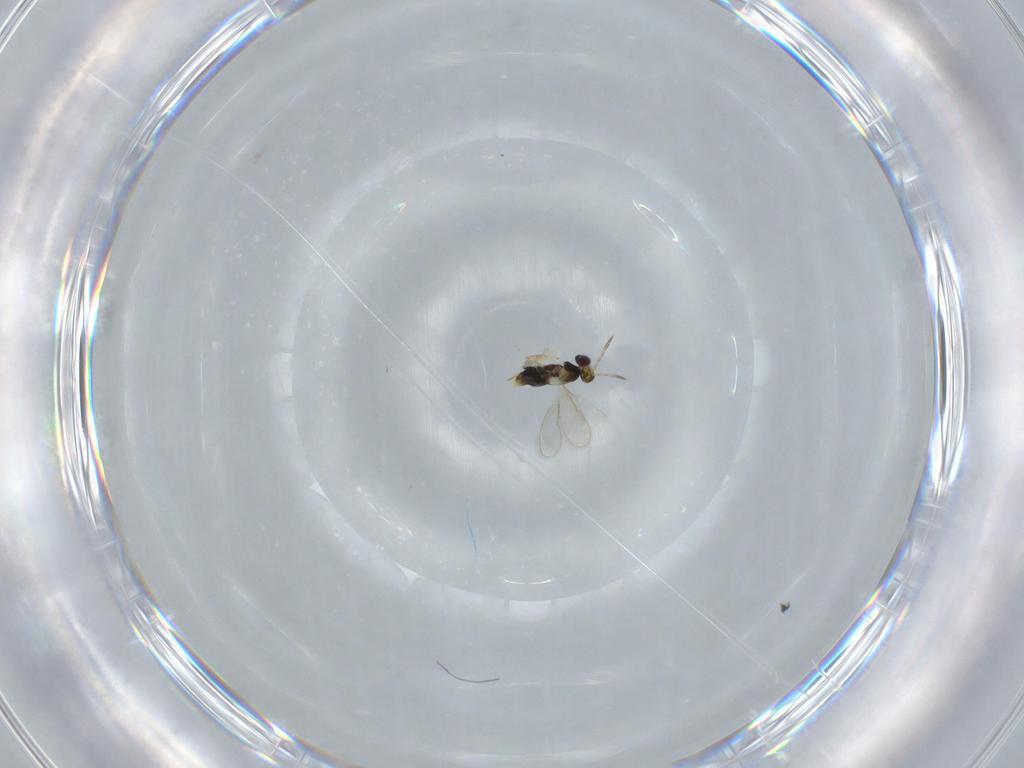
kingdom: Animalia
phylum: Arthropoda
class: Insecta
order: Hymenoptera
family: Aphelinidae
